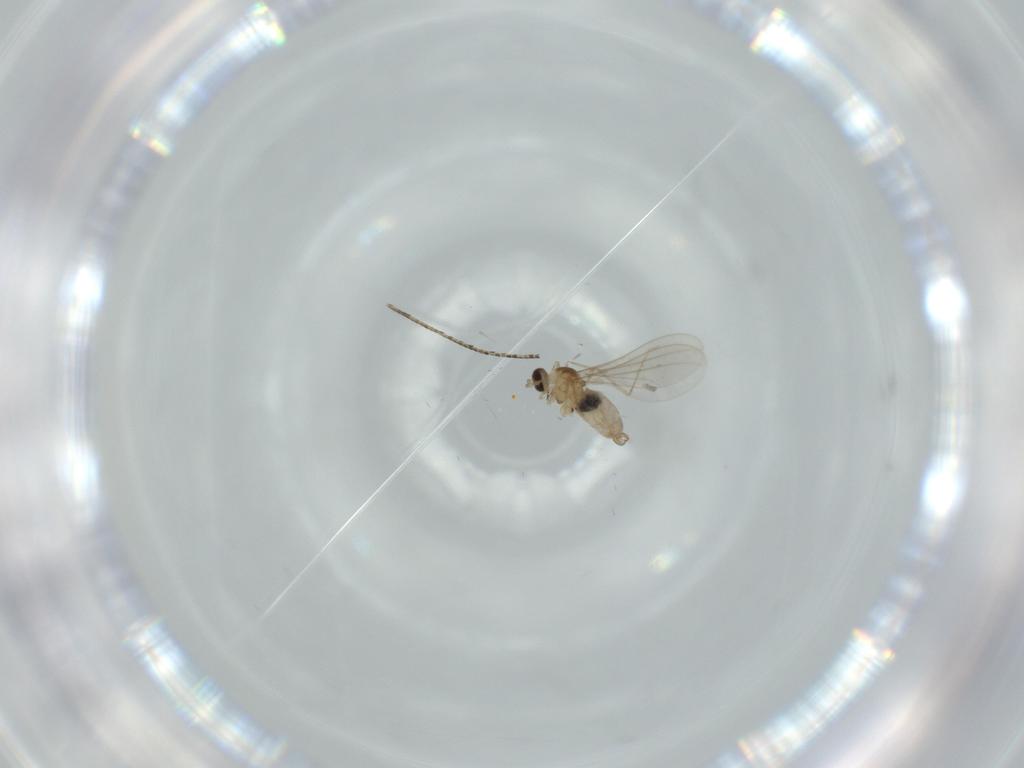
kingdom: Animalia
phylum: Arthropoda
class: Insecta
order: Diptera
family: Cecidomyiidae
